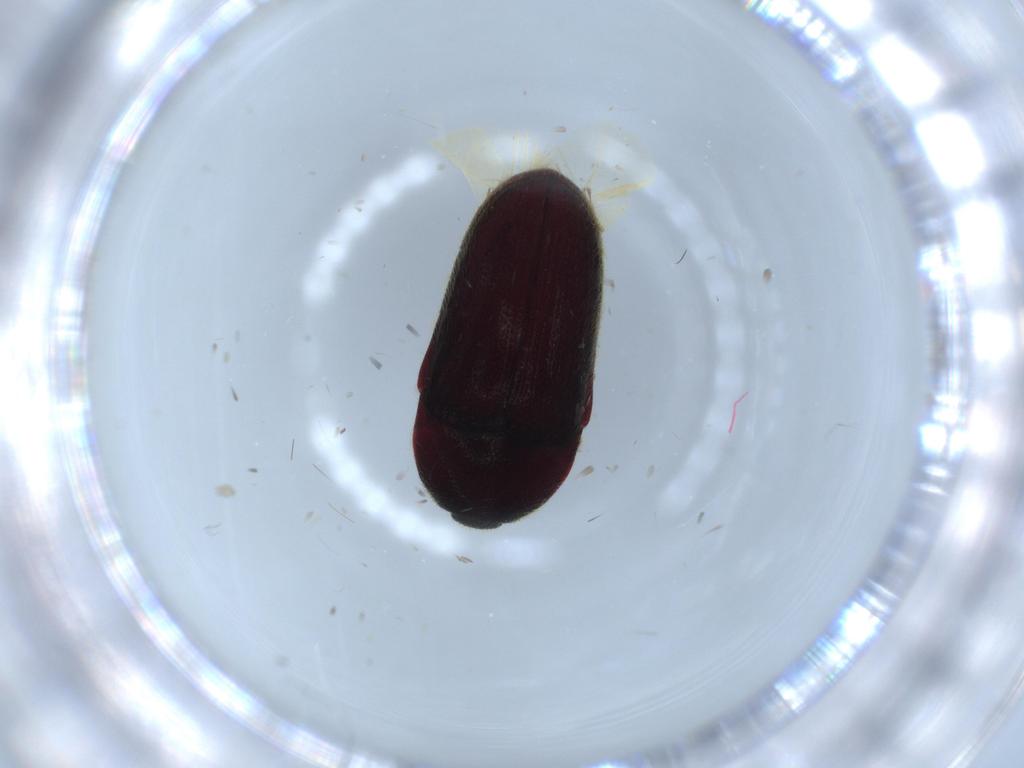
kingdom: Animalia
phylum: Arthropoda
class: Insecta
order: Coleoptera
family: Throscidae
